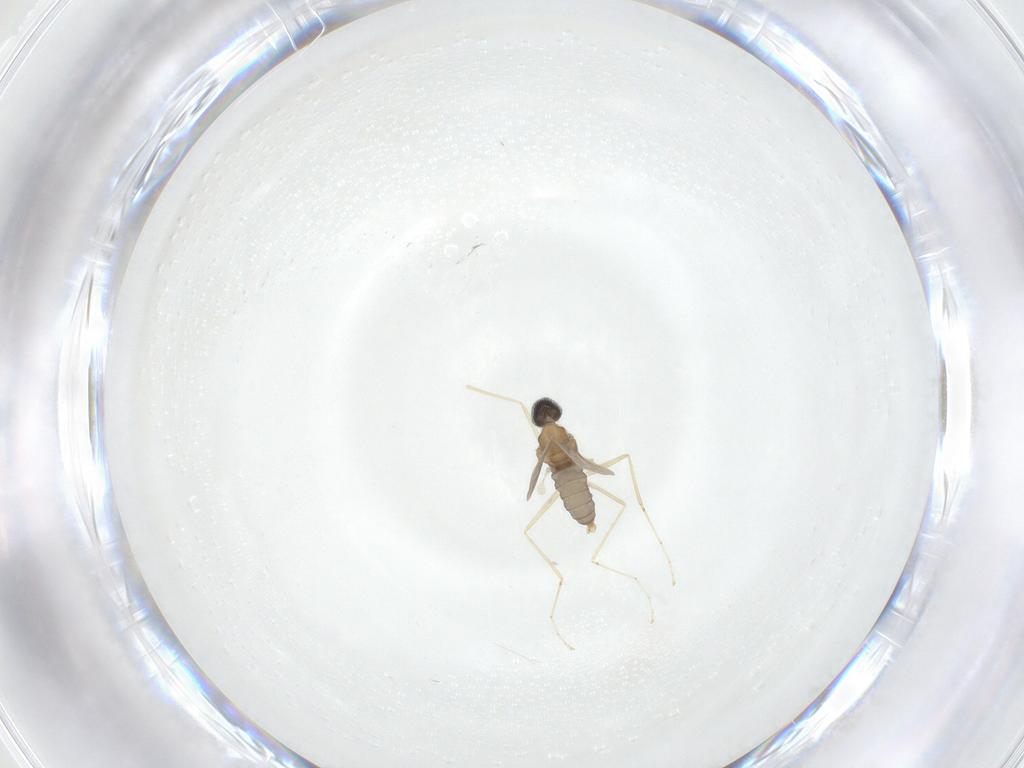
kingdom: Animalia
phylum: Arthropoda
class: Insecta
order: Diptera
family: Cecidomyiidae
